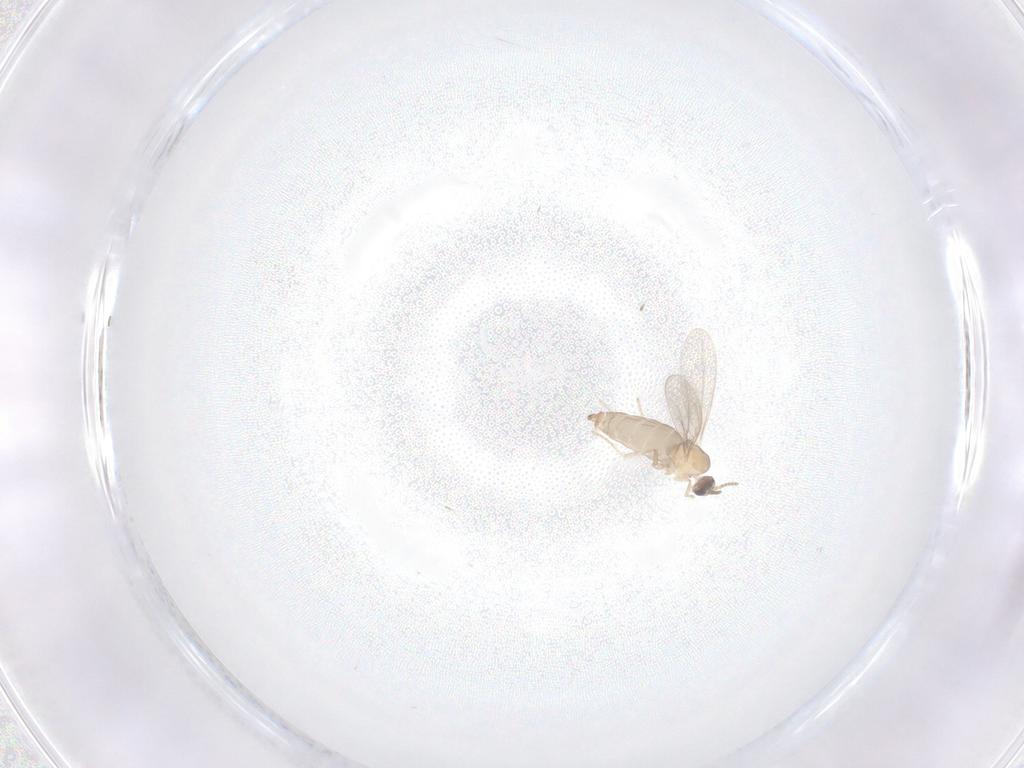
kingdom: Animalia
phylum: Arthropoda
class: Insecta
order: Diptera
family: Cecidomyiidae
